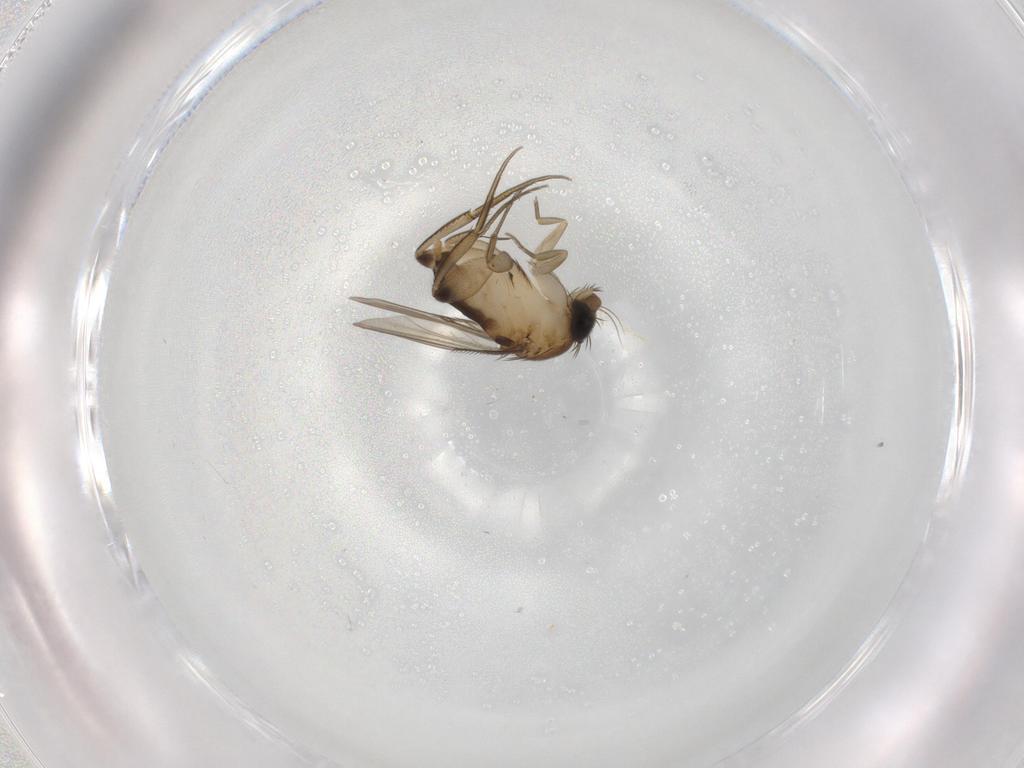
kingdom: Animalia
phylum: Arthropoda
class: Insecta
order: Diptera
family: Phoridae
